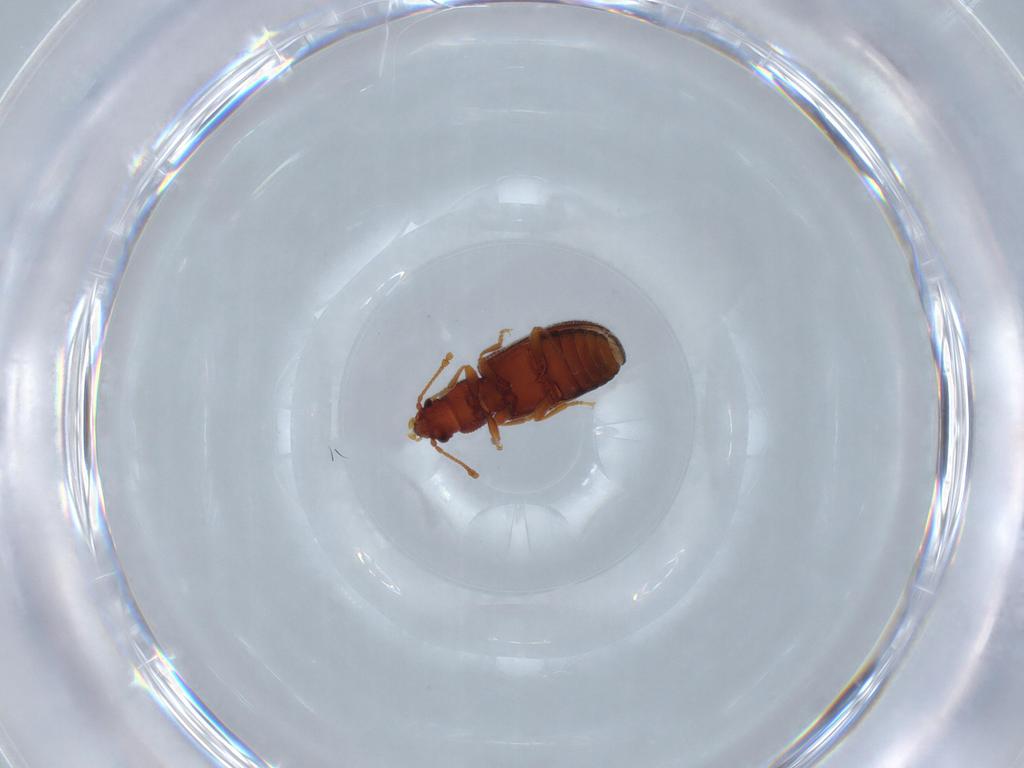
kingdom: Animalia
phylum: Arthropoda
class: Insecta
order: Coleoptera
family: Mycetophagidae
